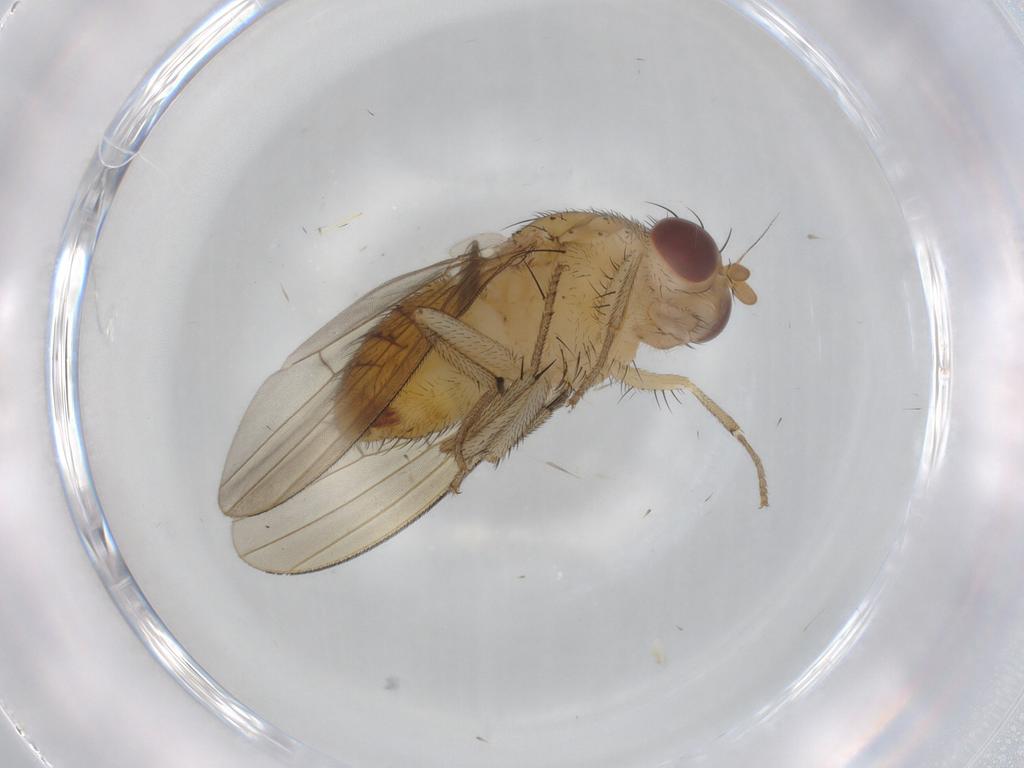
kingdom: Animalia
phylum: Arthropoda
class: Insecta
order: Diptera
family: Ceratopogonidae
